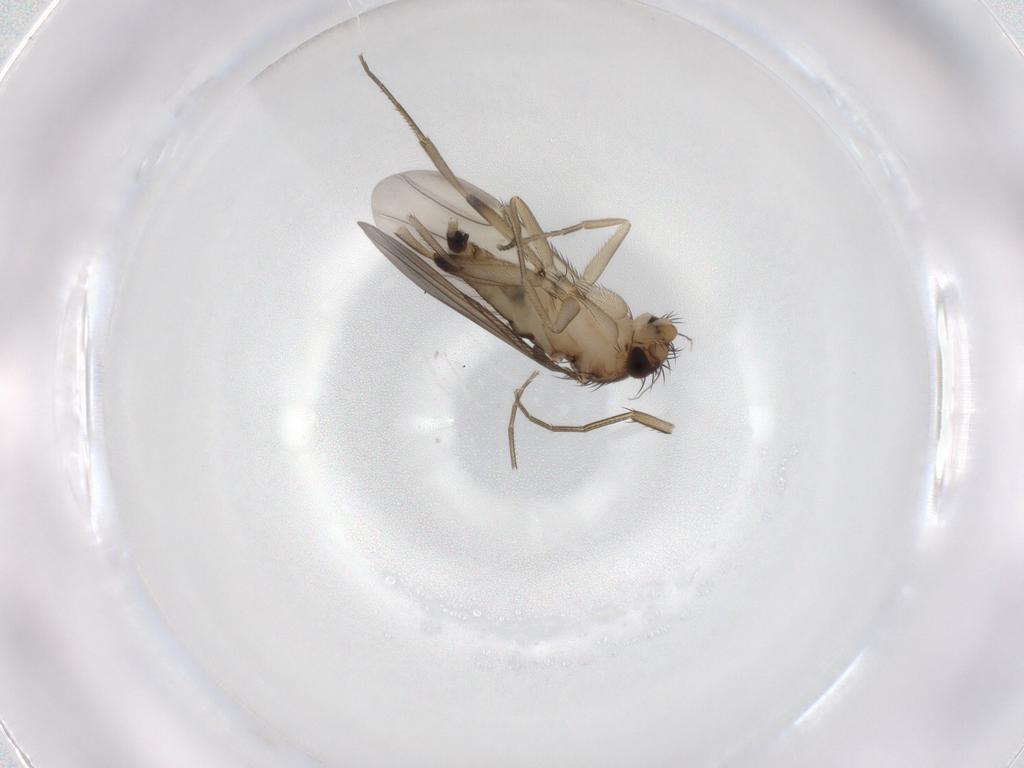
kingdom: Animalia
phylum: Arthropoda
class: Insecta
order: Diptera
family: Phoridae
